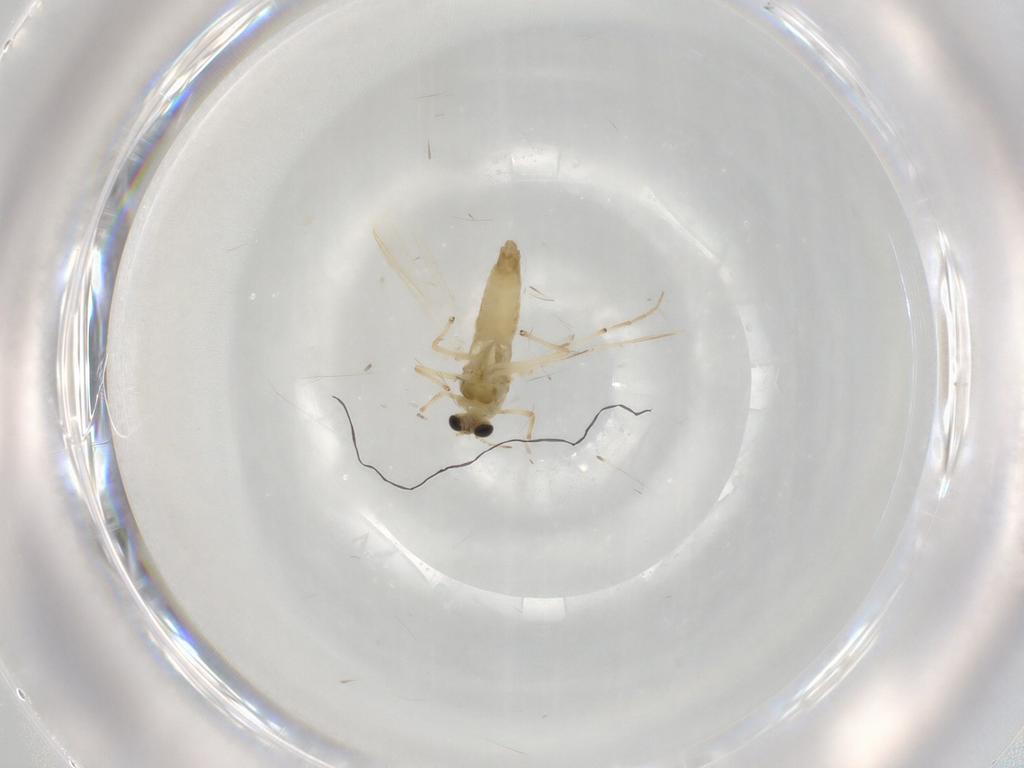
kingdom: Animalia
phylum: Arthropoda
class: Insecta
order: Diptera
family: Chironomidae
